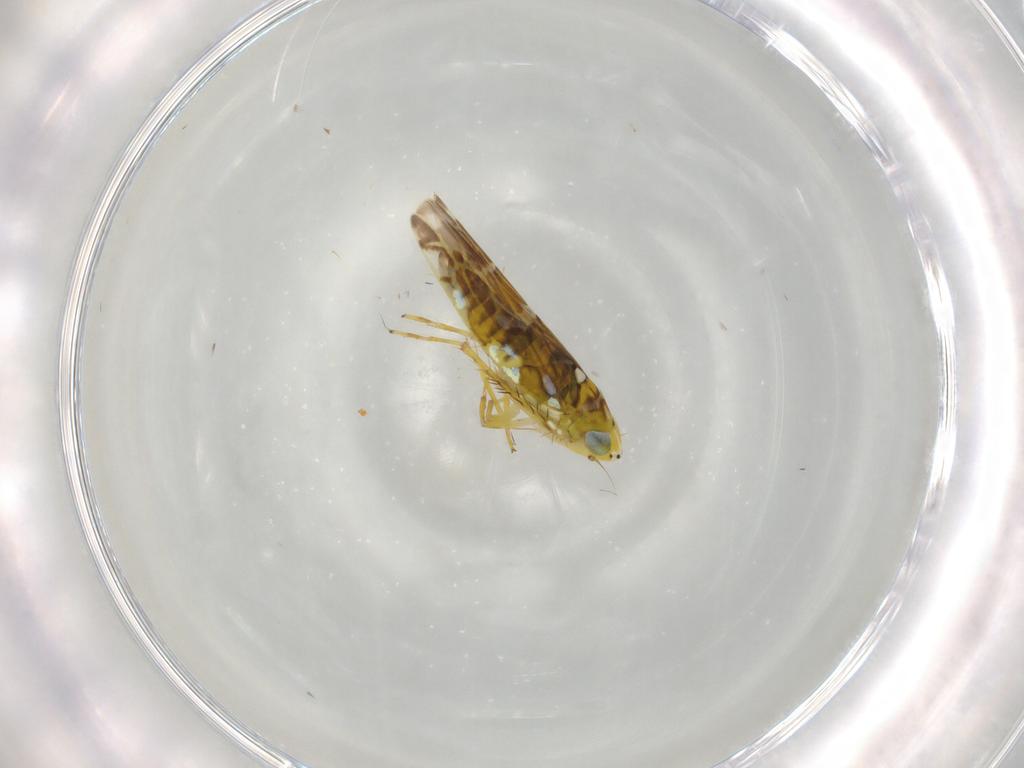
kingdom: Animalia
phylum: Arthropoda
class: Insecta
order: Hemiptera
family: Cicadellidae
